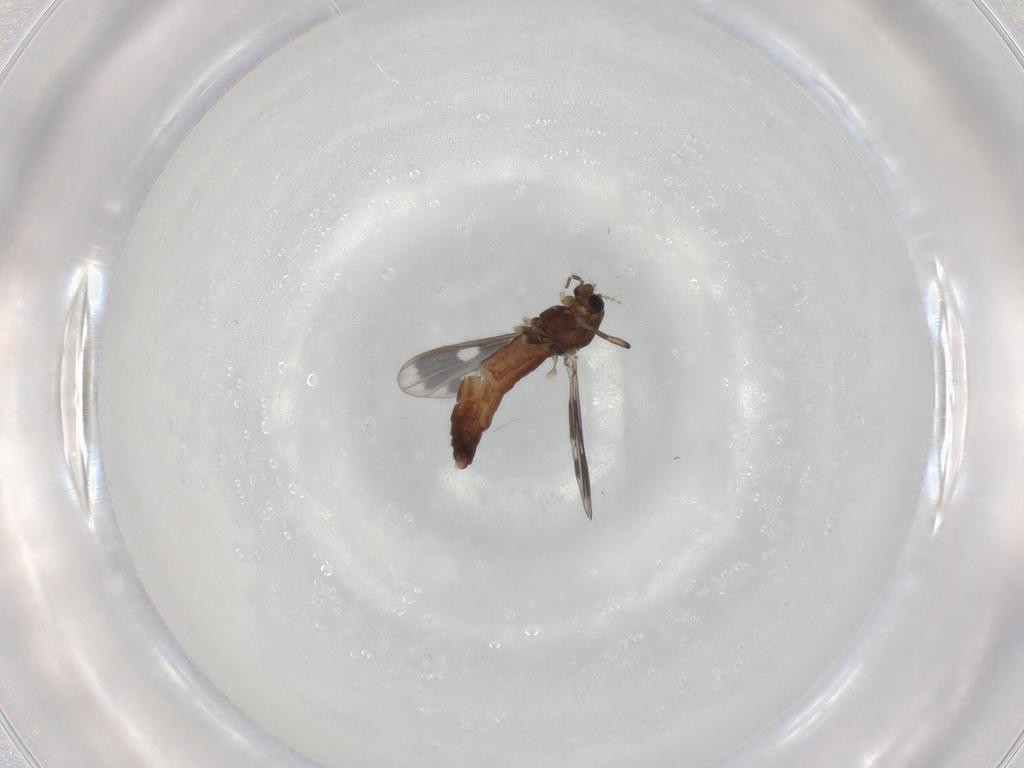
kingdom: Animalia
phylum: Arthropoda
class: Insecta
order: Diptera
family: Chironomidae
